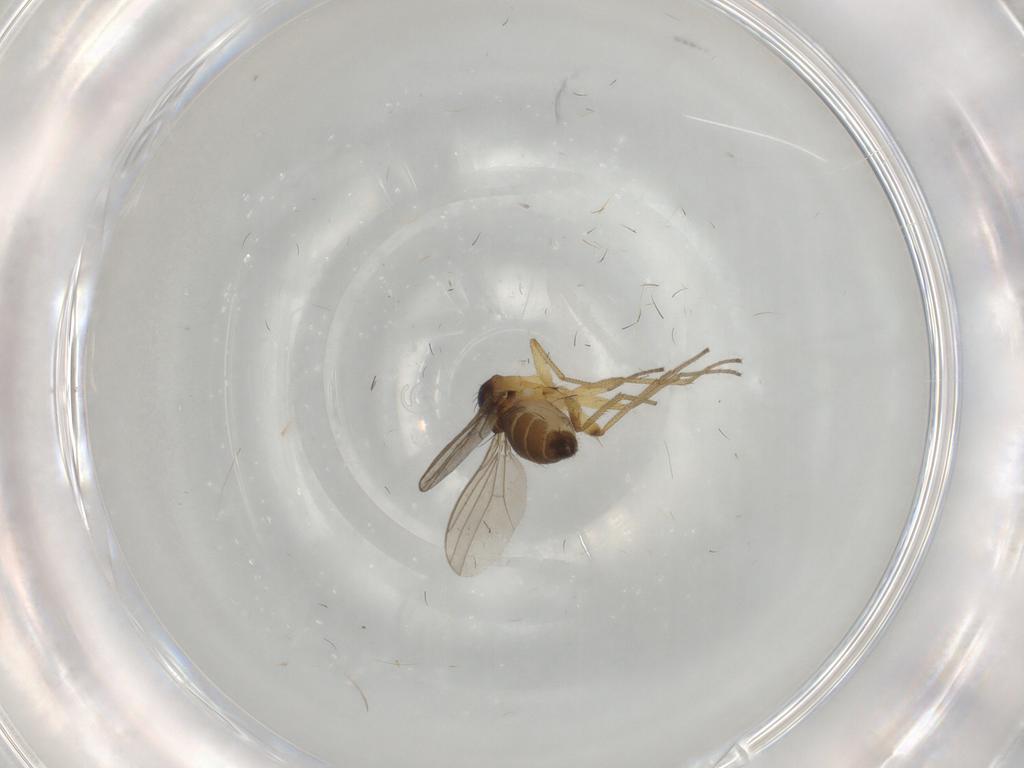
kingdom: Animalia
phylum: Arthropoda
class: Insecta
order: Diptera
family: Dolichopodidae
